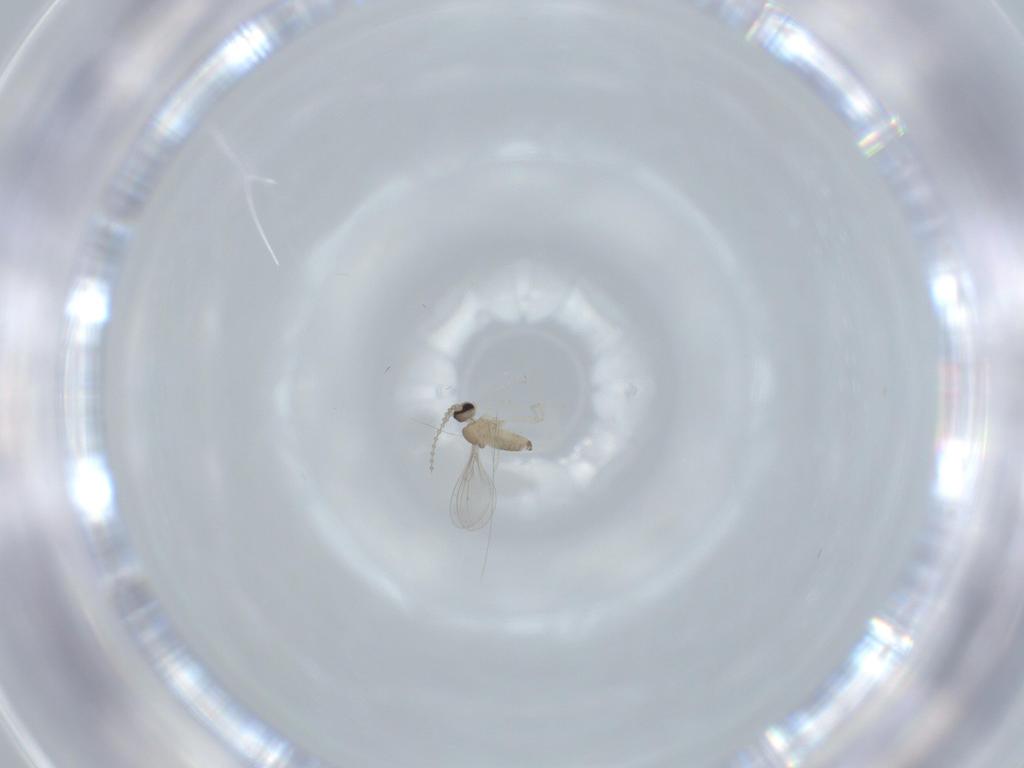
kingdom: Animalia
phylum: Arthropoda
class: Insecta
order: Diptera
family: Cecidomyiidae
